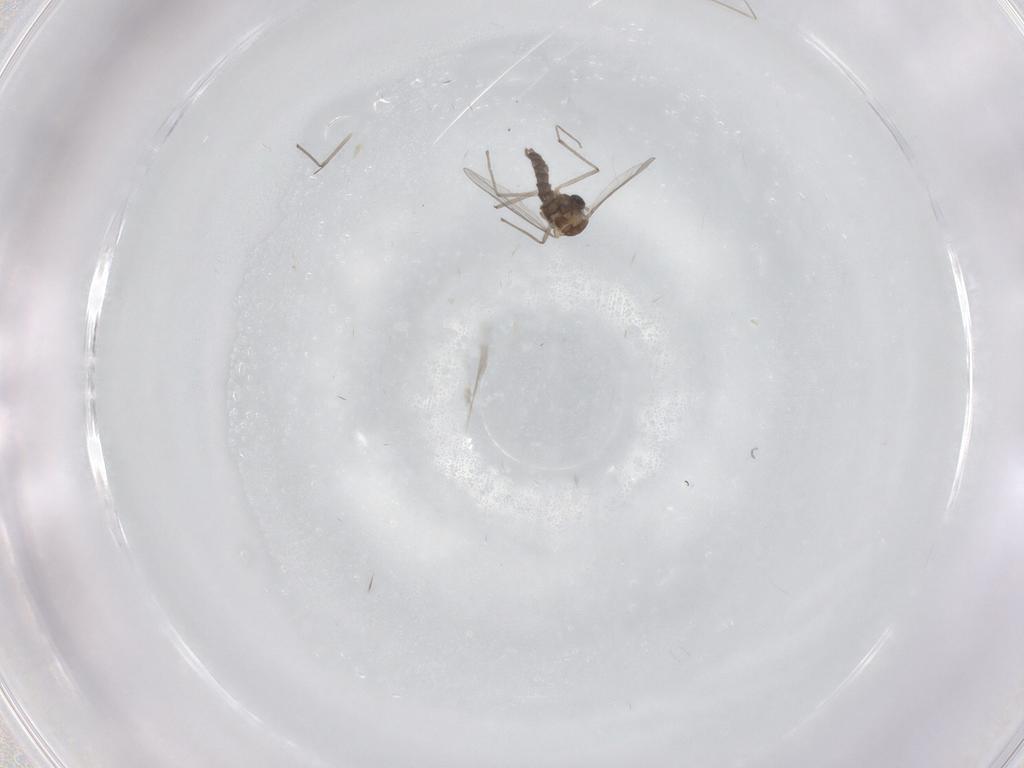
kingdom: Animalia
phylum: Arthropoda
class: Insecta
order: Diptera
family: Chironomidae
